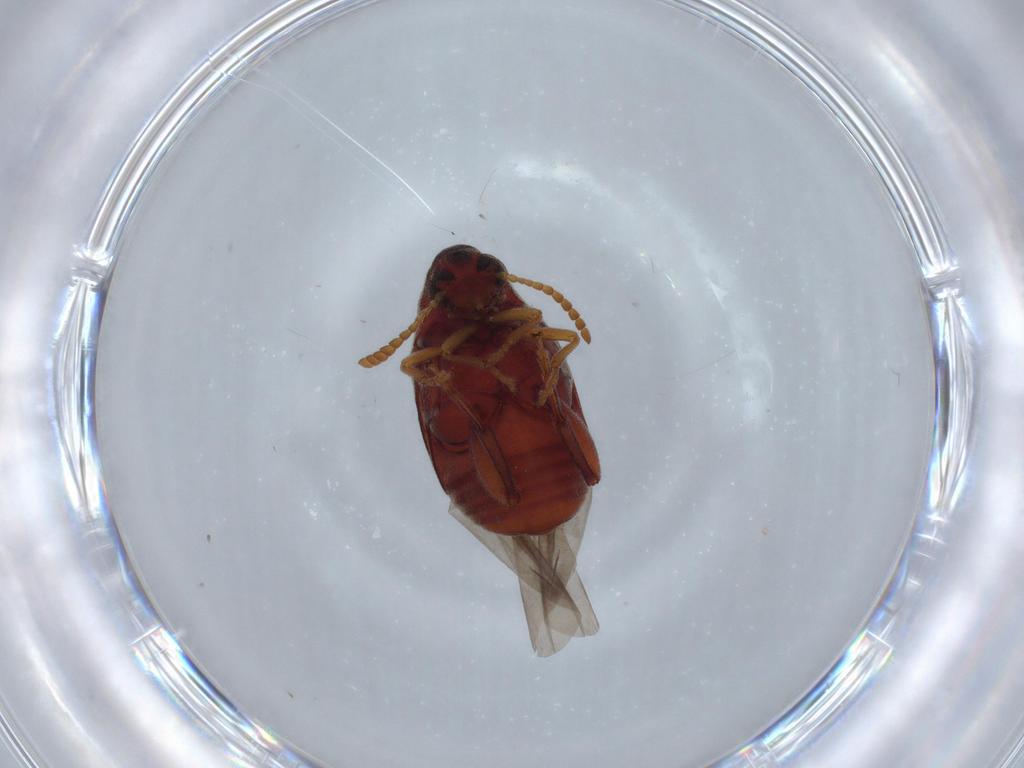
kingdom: Animalia
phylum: Arthropoda
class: Insecta
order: Coleoptera
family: Chrysomelidae
